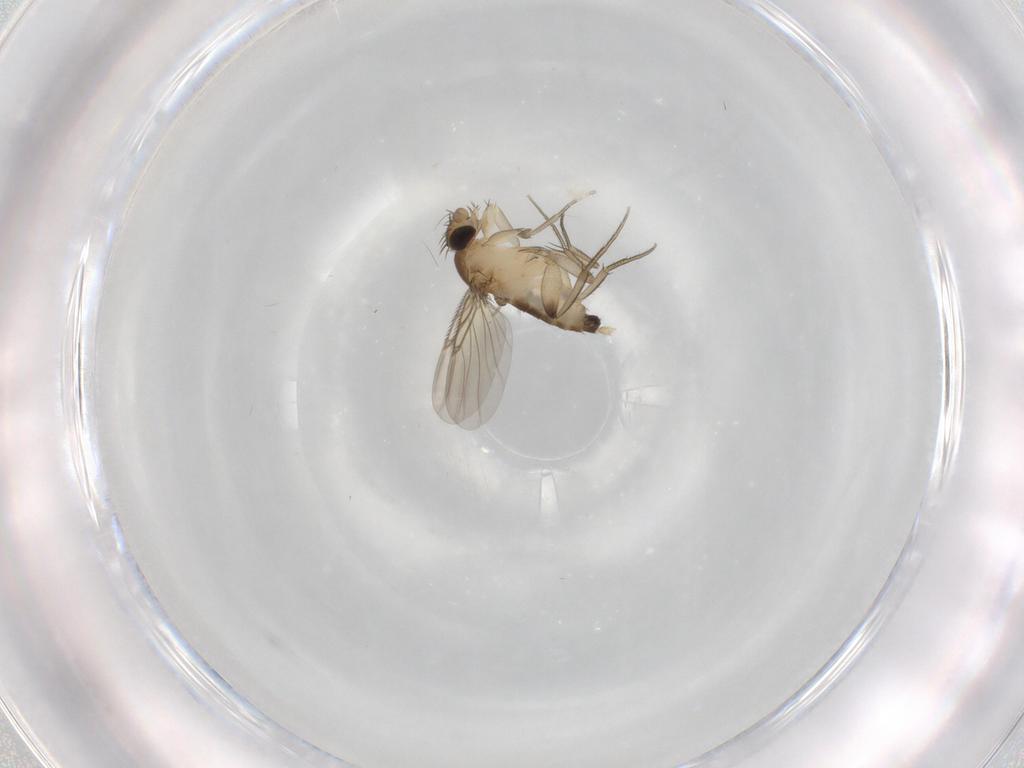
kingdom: Animalia
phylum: Arthropoda
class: Insecta
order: Diptera
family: Phoridae
